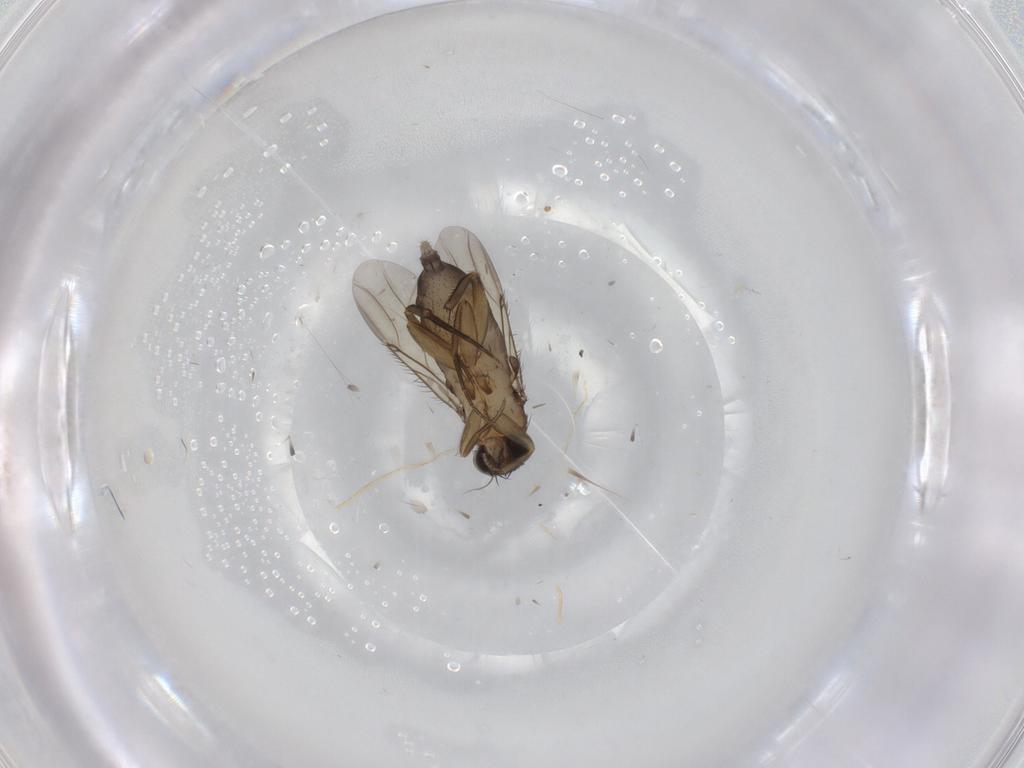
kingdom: Animalia
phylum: Arthropoda
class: Insecta
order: Diptera
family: Phoridae
